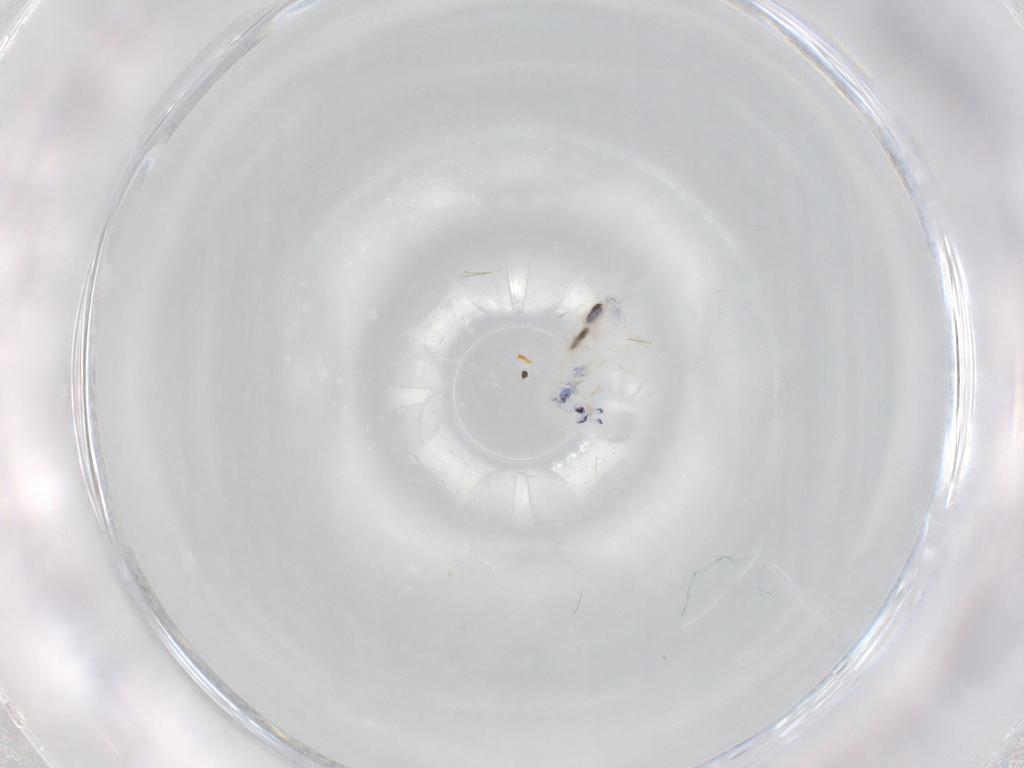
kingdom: Animalia
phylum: Arthropoda
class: Collembola
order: Entomobryomorpha
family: Entomobryidae
